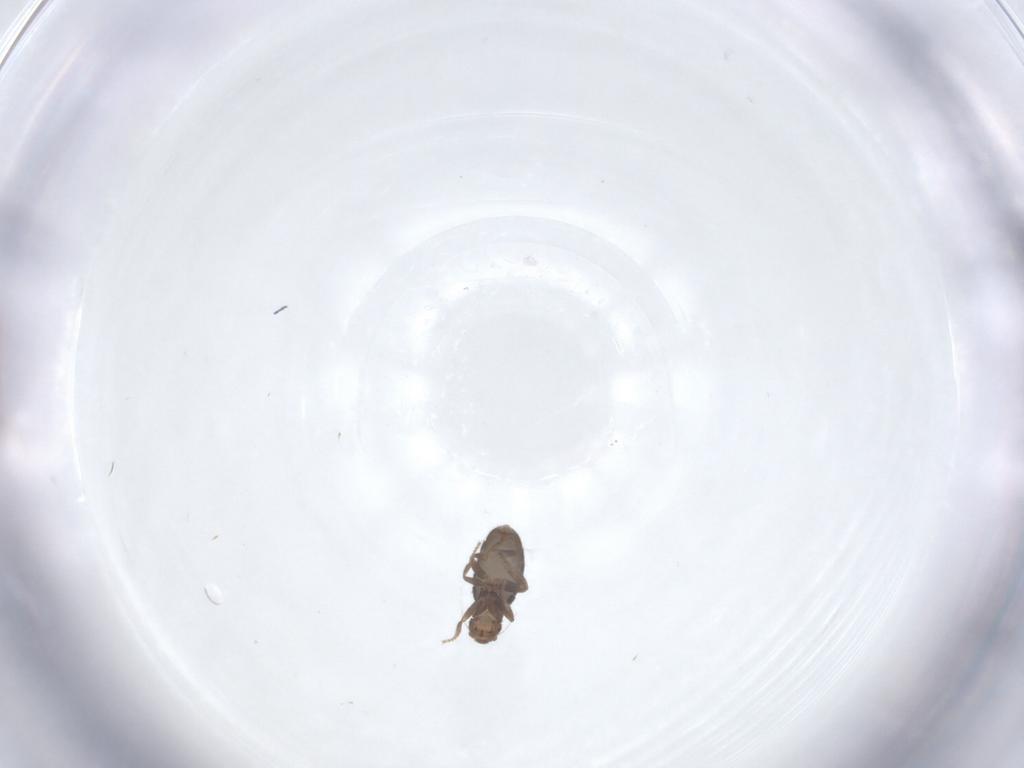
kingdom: Animalia
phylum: Arthropoda
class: Insecta
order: Diptera
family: Phoridae
